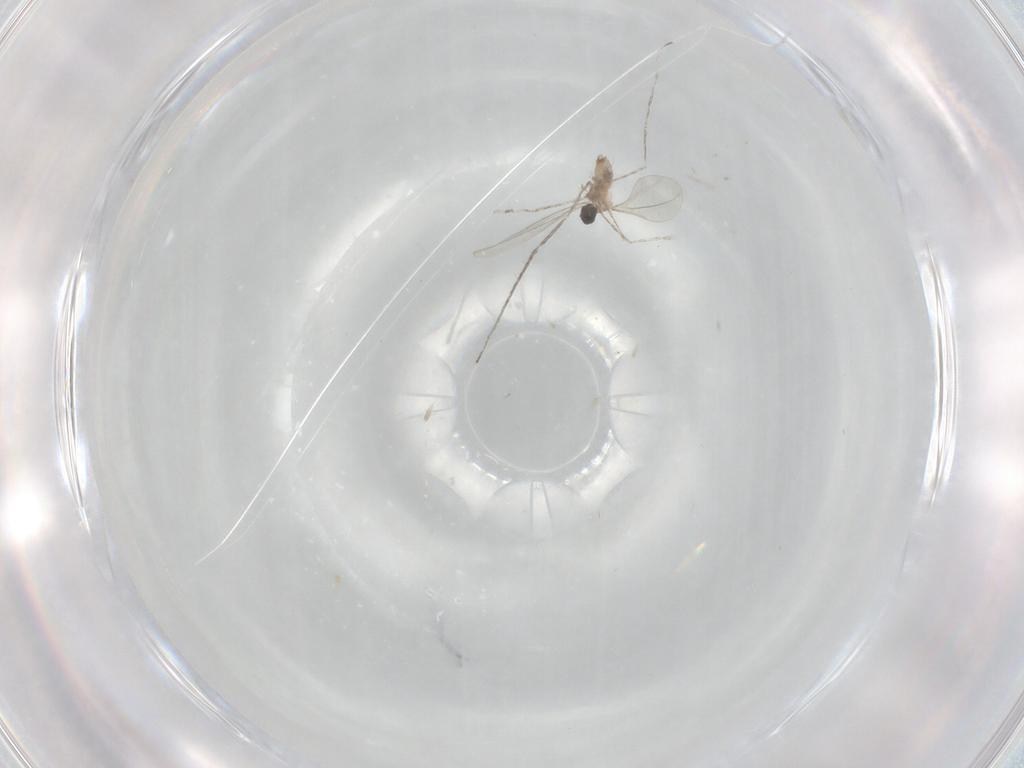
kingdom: Animalia
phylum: Arthropoda
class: Insecta
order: Diptera
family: Cecidomyiidae
